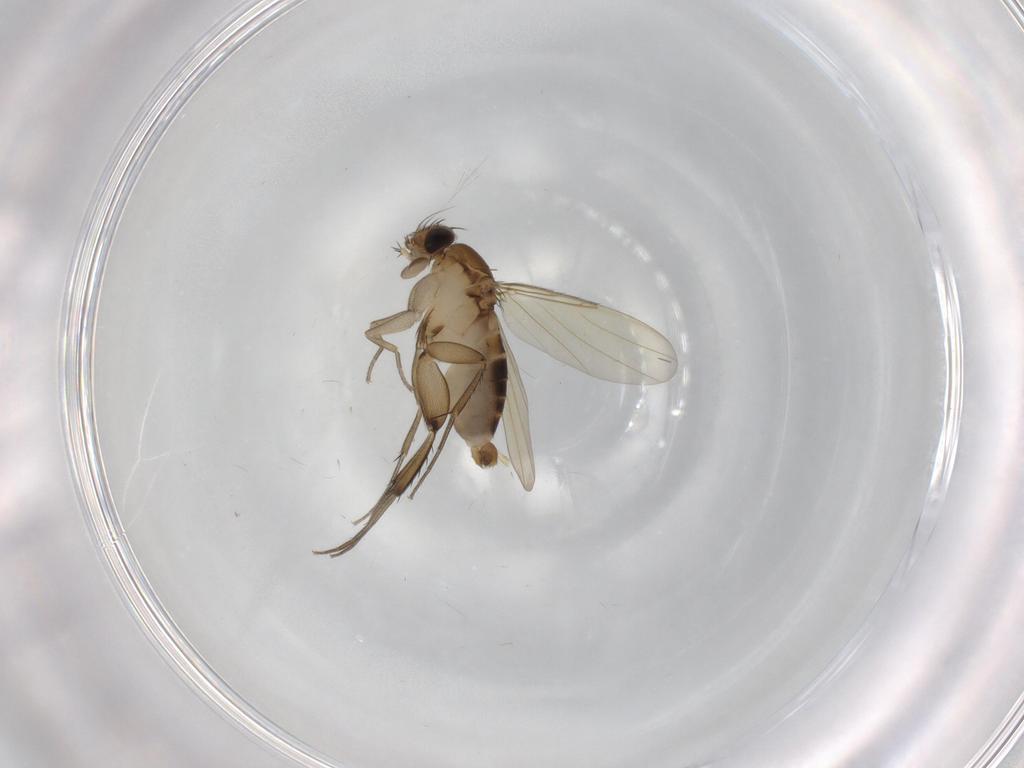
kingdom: Animalia
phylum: Arthropoda
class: Insecta
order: Diptera
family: Phoridae
